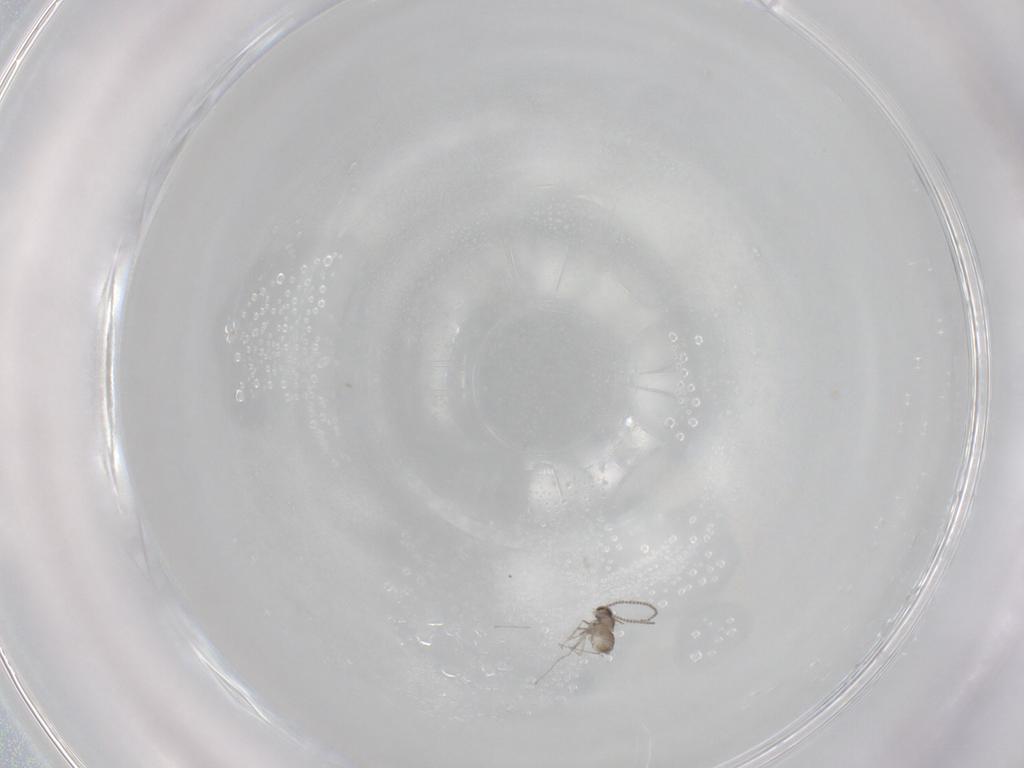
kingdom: Animalia
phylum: Arthropoda
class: Insecta
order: Diptera
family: Cecidomyiidae
